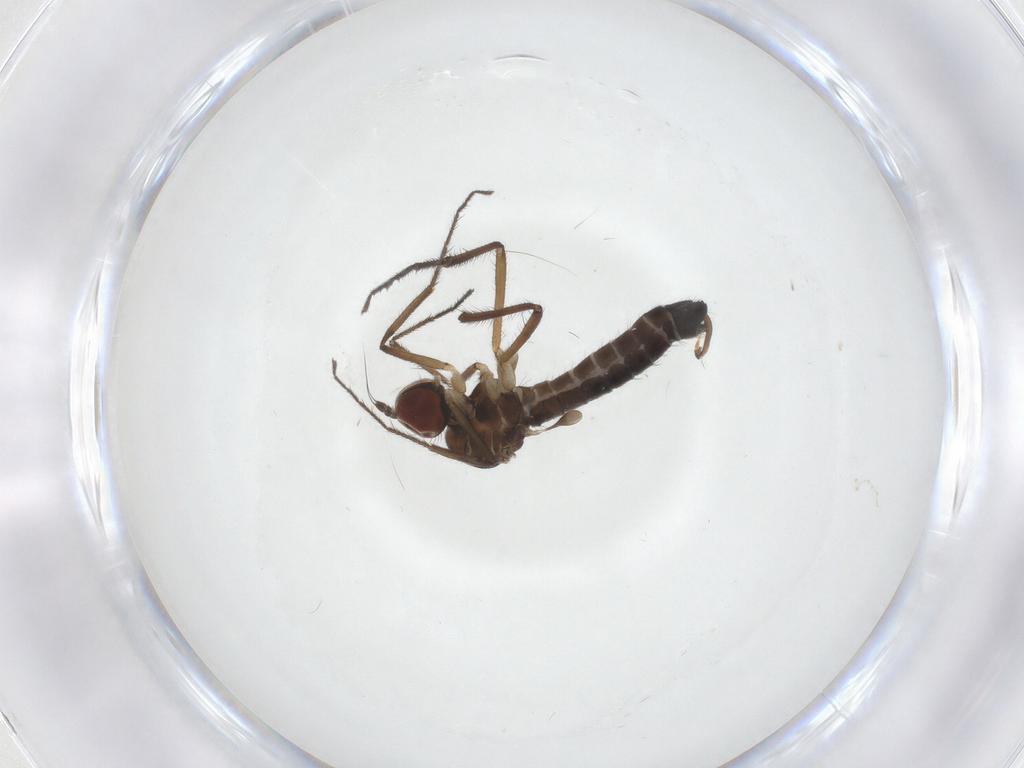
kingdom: Animalia
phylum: Arthropoda
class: Insecta
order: Diptera
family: Hybotidae
